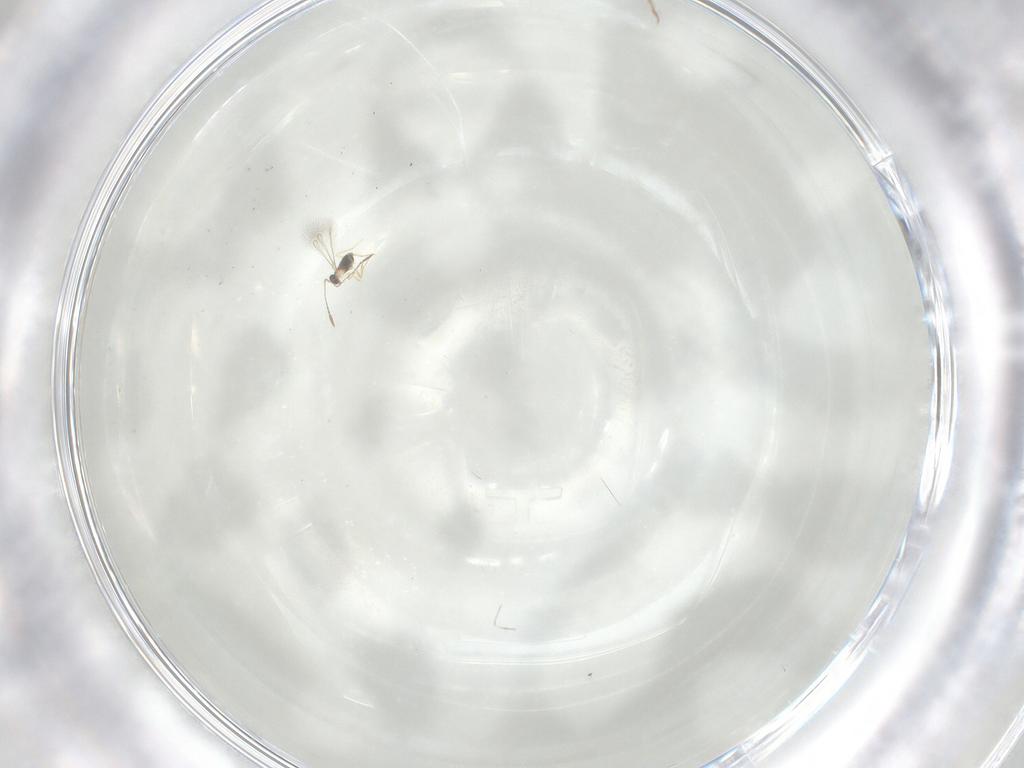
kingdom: Animalia
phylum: Arthropoda
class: Insecta
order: Hymenoptera
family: Mymaridae
